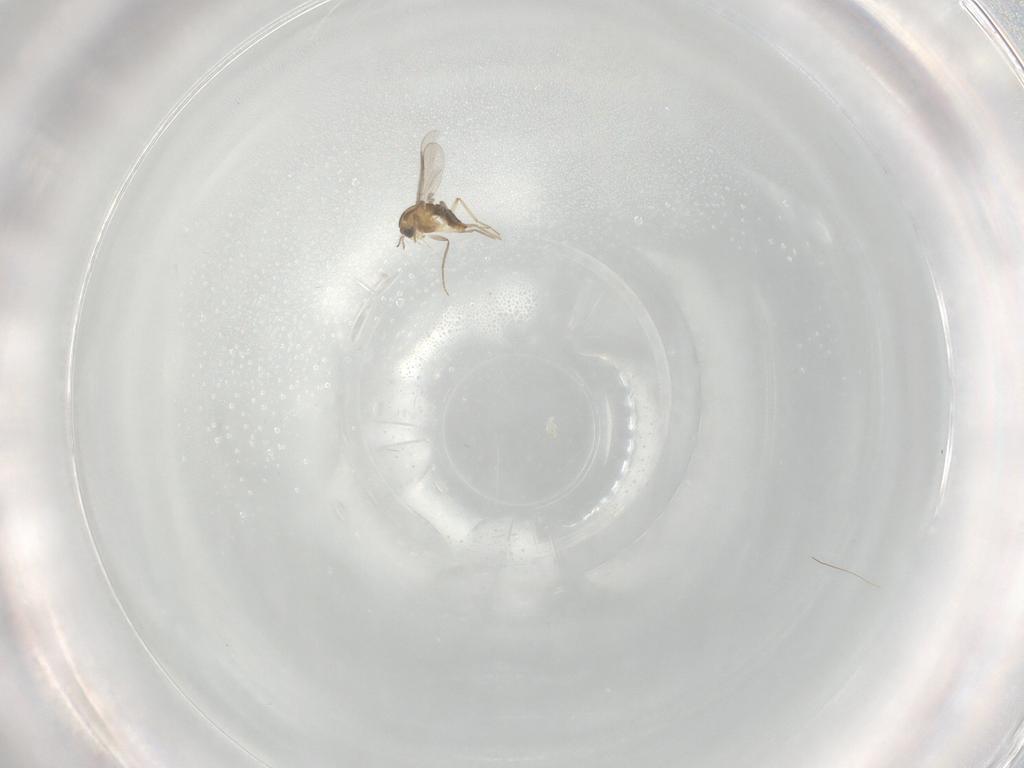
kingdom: Animalia
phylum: Arthropoda
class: Insecta
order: Diptera
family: Chironomidae
